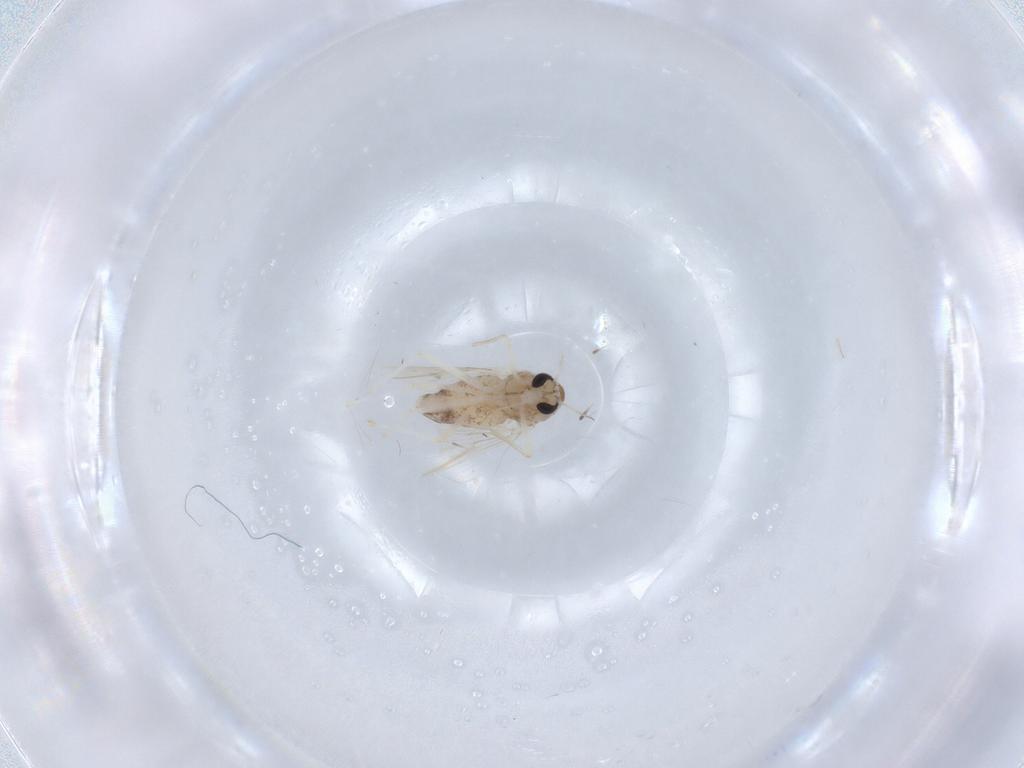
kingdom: Animalia
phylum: Arthropoda
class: Insecta
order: Diptera
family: Chironomidae
